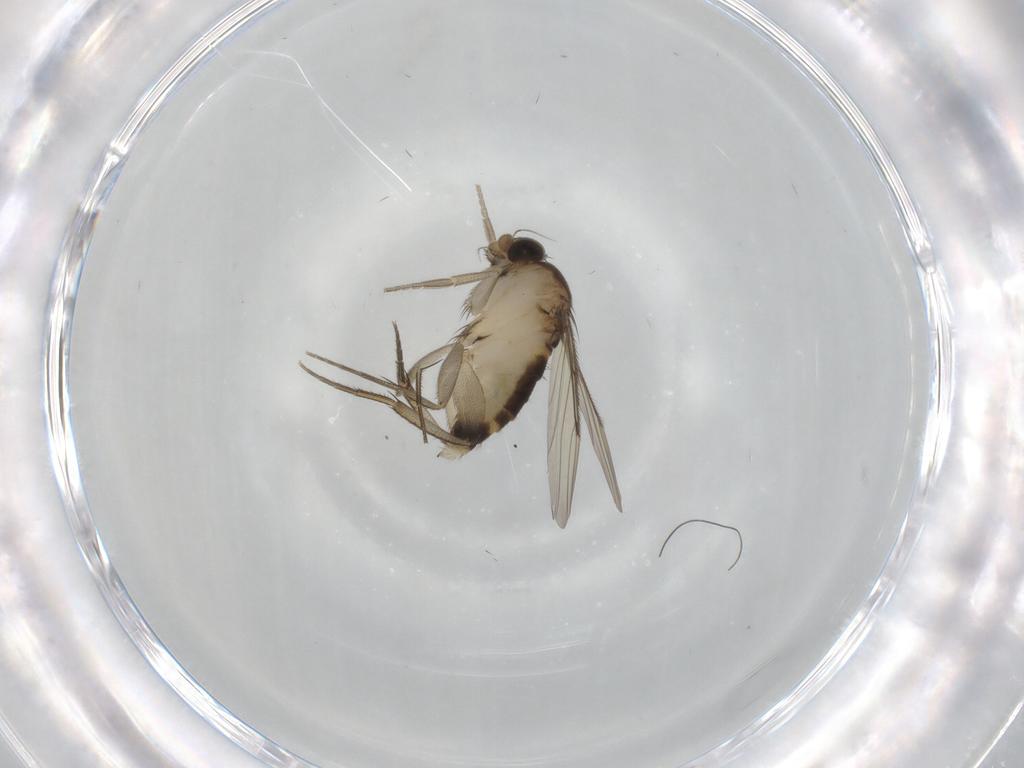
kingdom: Animalia
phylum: Arthropoda
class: Insecta
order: Diptera
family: Phoridae
